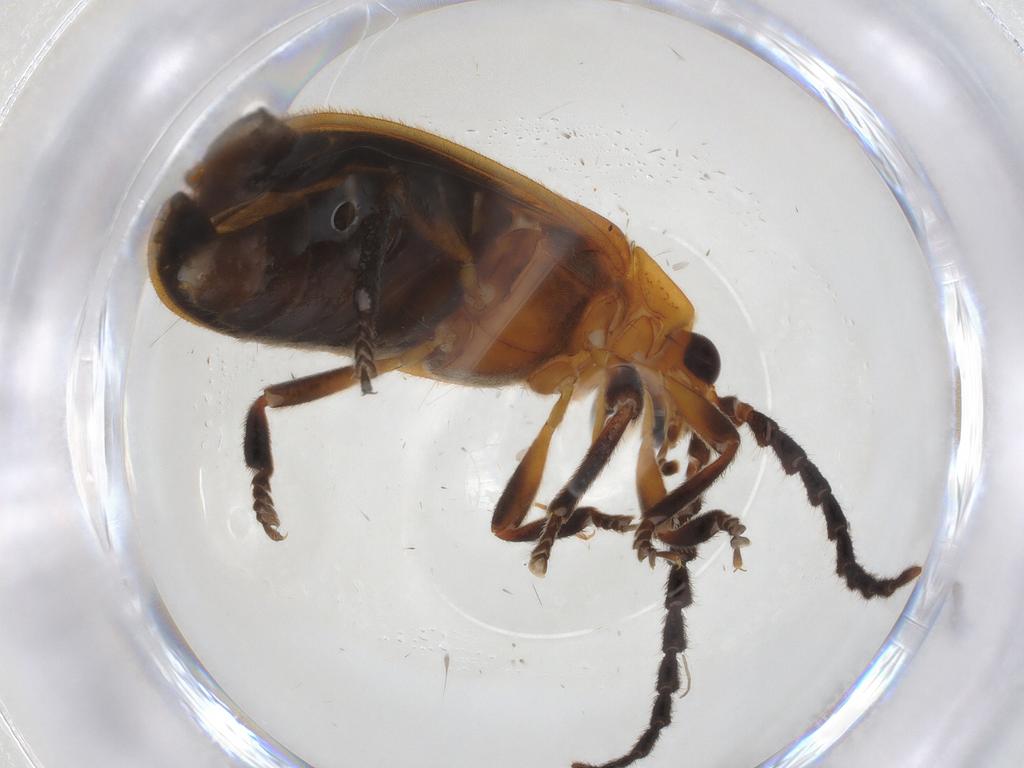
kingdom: Animalia
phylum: Arthropoda
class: Insecta
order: Coleoptera
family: Lycidae
